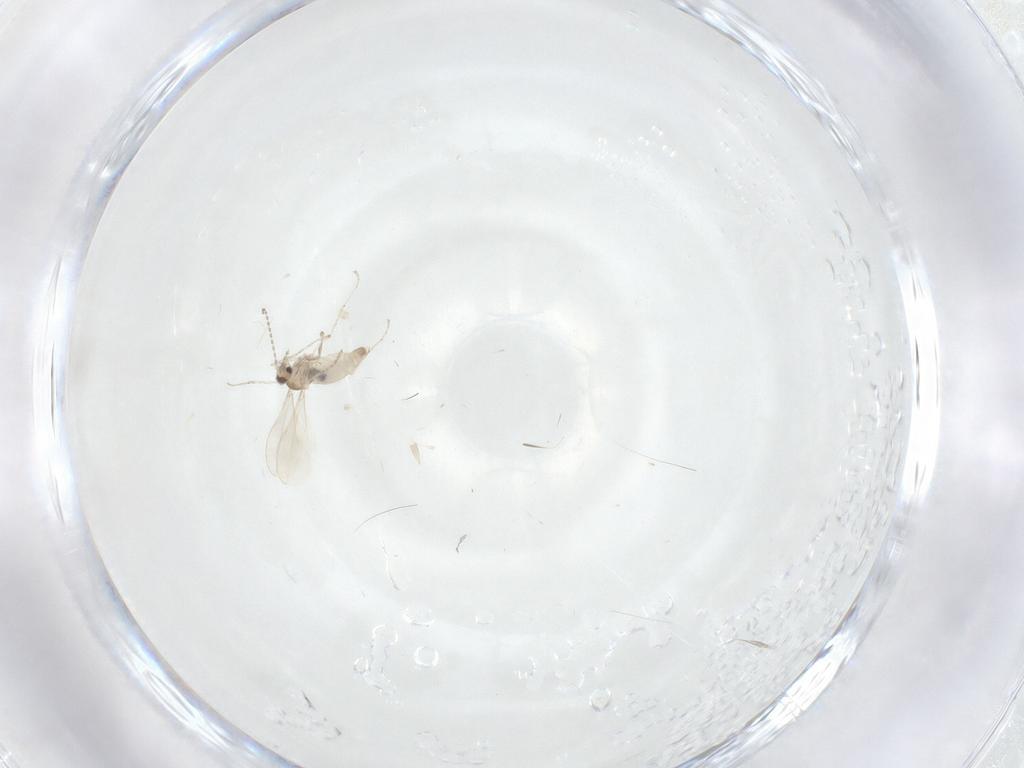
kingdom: Animalia
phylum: Arthropoda
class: Insecta
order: Diptera
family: Cecidomyiidae
